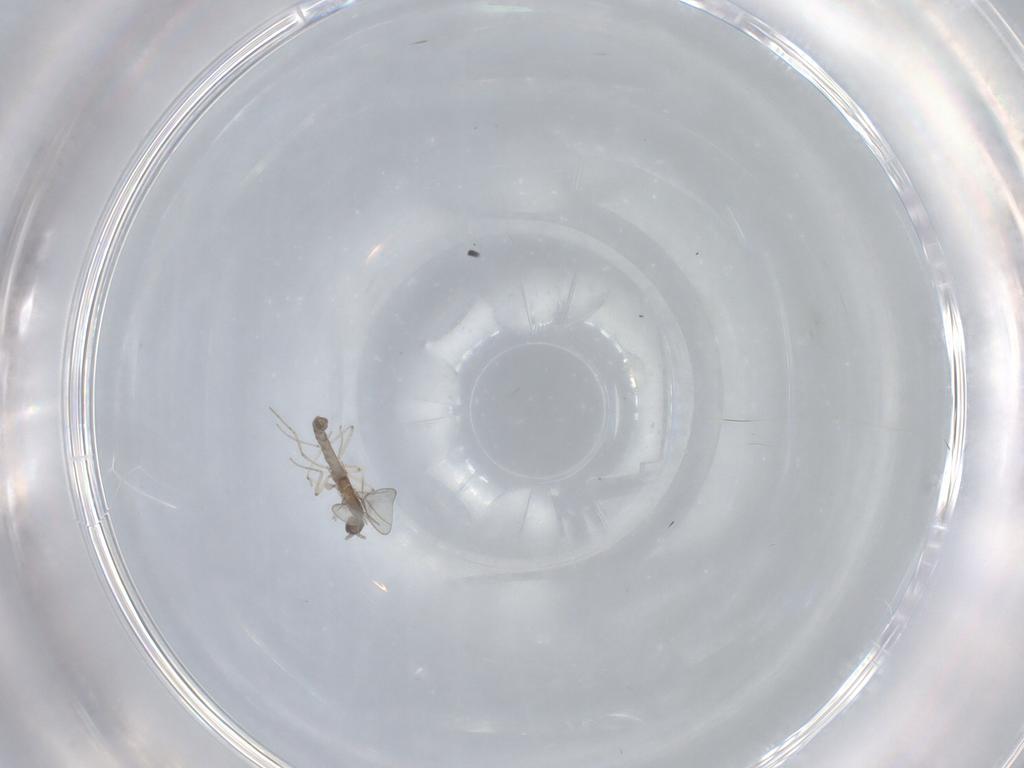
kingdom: Animalia
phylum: Arthropoda
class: Insecta
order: Diptera
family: Cecidomyiidae
